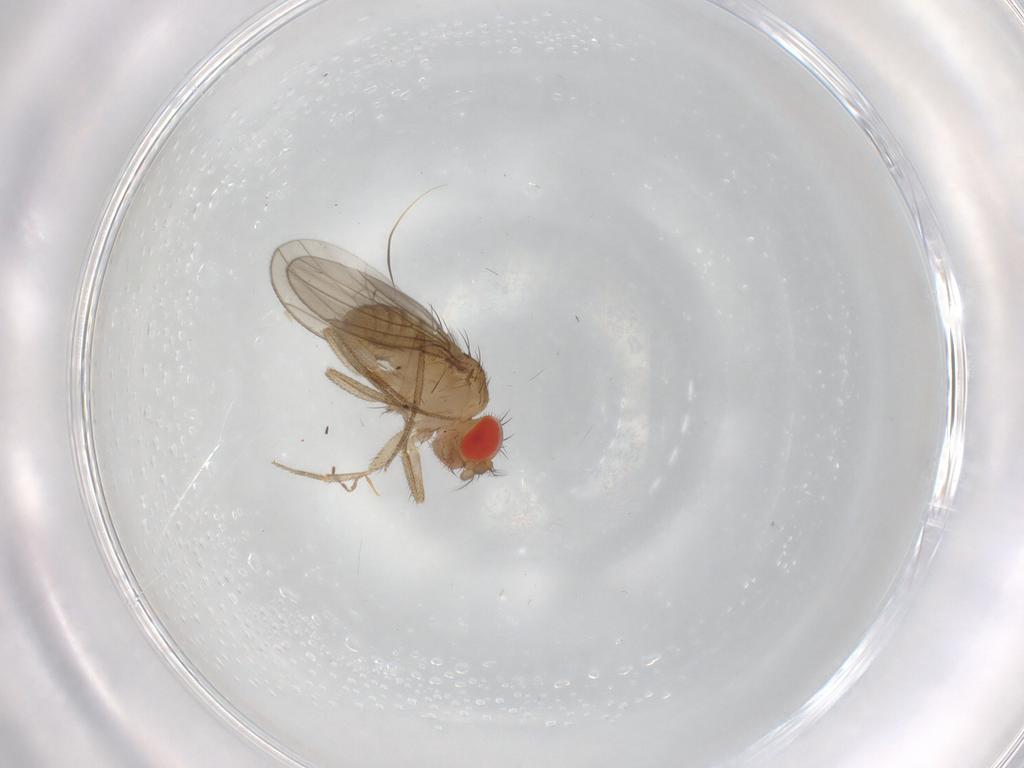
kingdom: Animalia
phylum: Arthropoda
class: Insecta
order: Diptera
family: Drosophilidae
